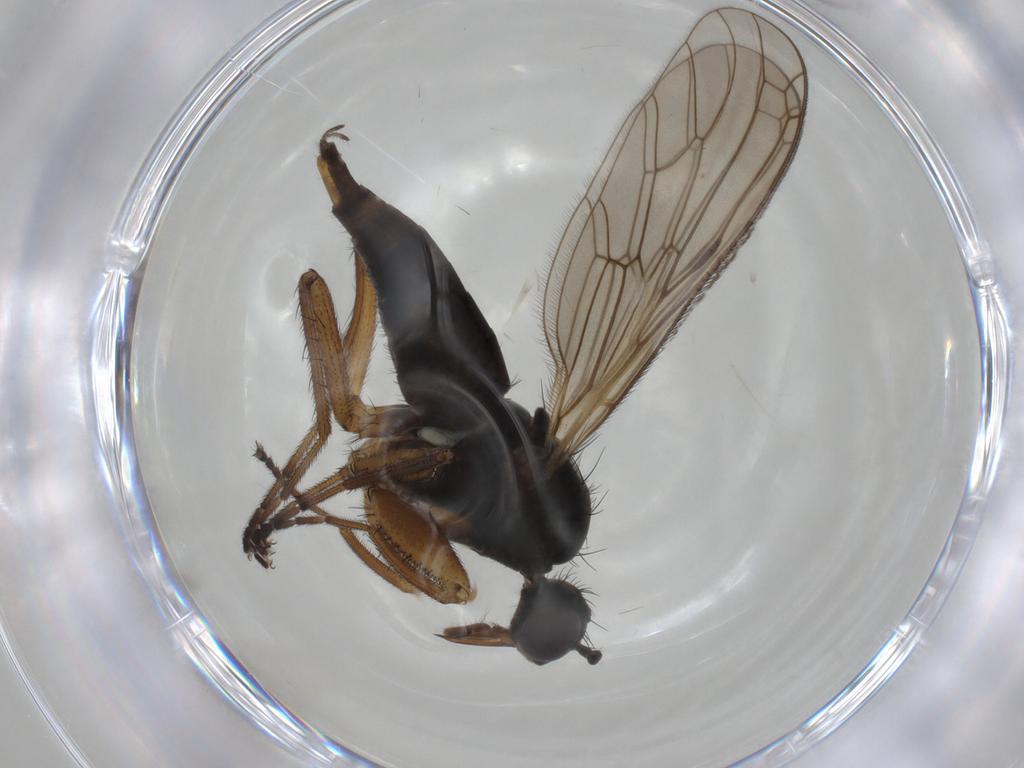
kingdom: Animalia
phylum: Arthropoda
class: Insecta
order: Diptera
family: Empididae
